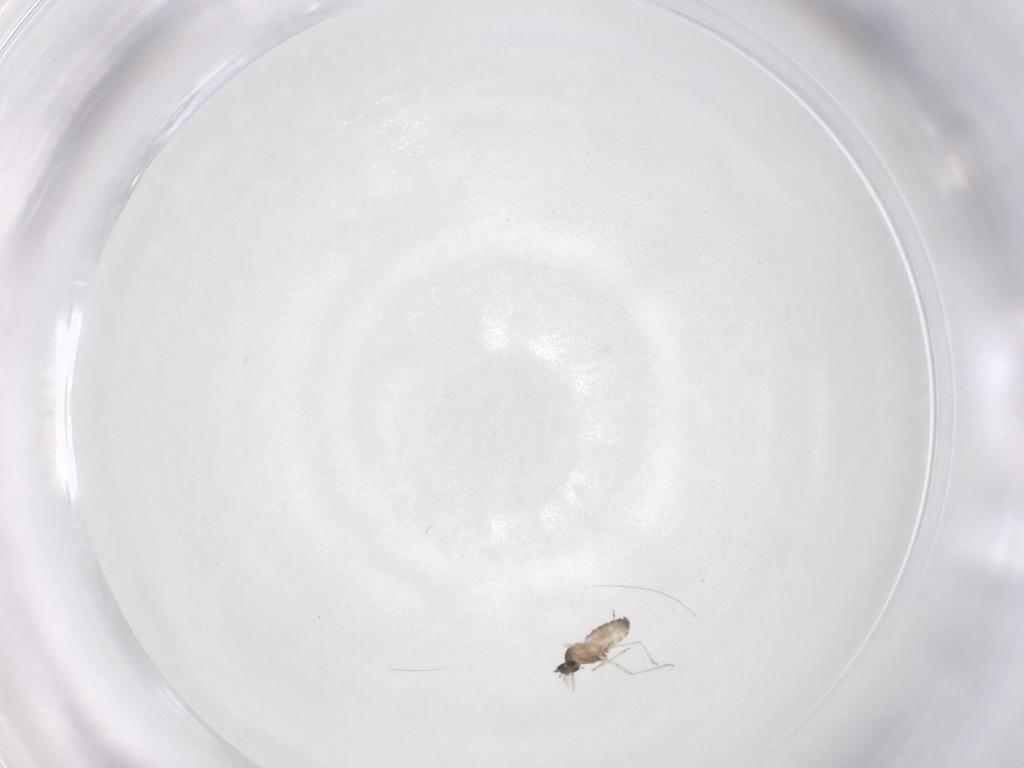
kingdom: Animalia
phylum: Arthropoda
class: Insecta
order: Diptera
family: Cecidomyiidae
